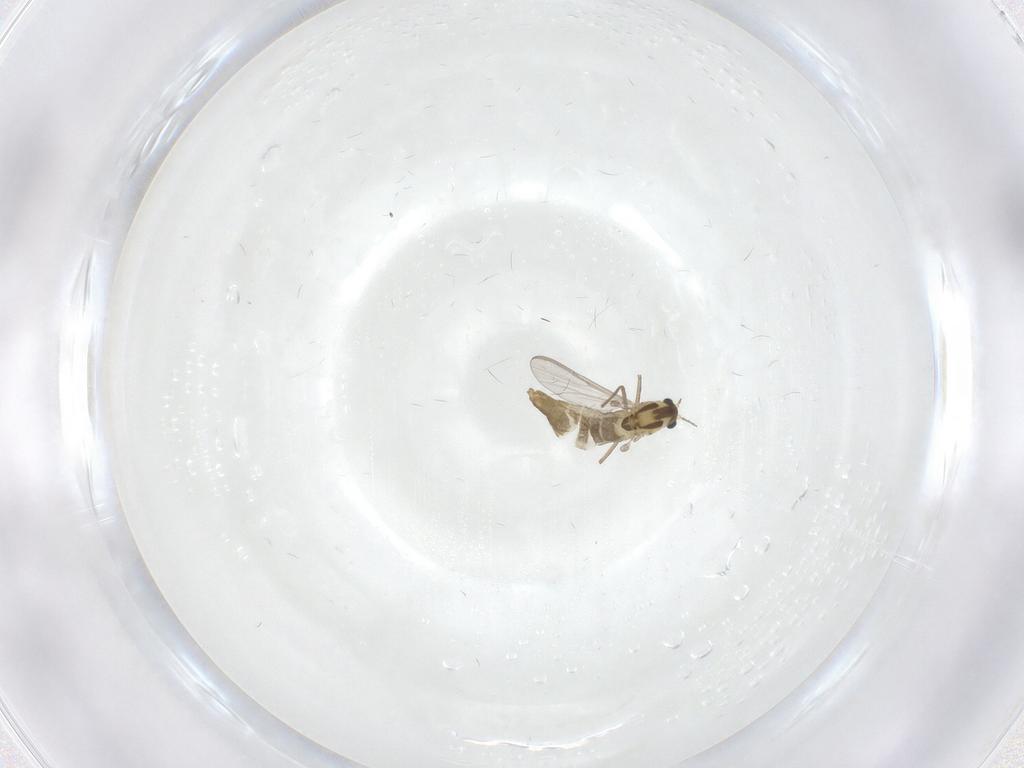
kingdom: Animalia
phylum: Arthropoda
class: Insecta
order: Diptera
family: Chironomidae
